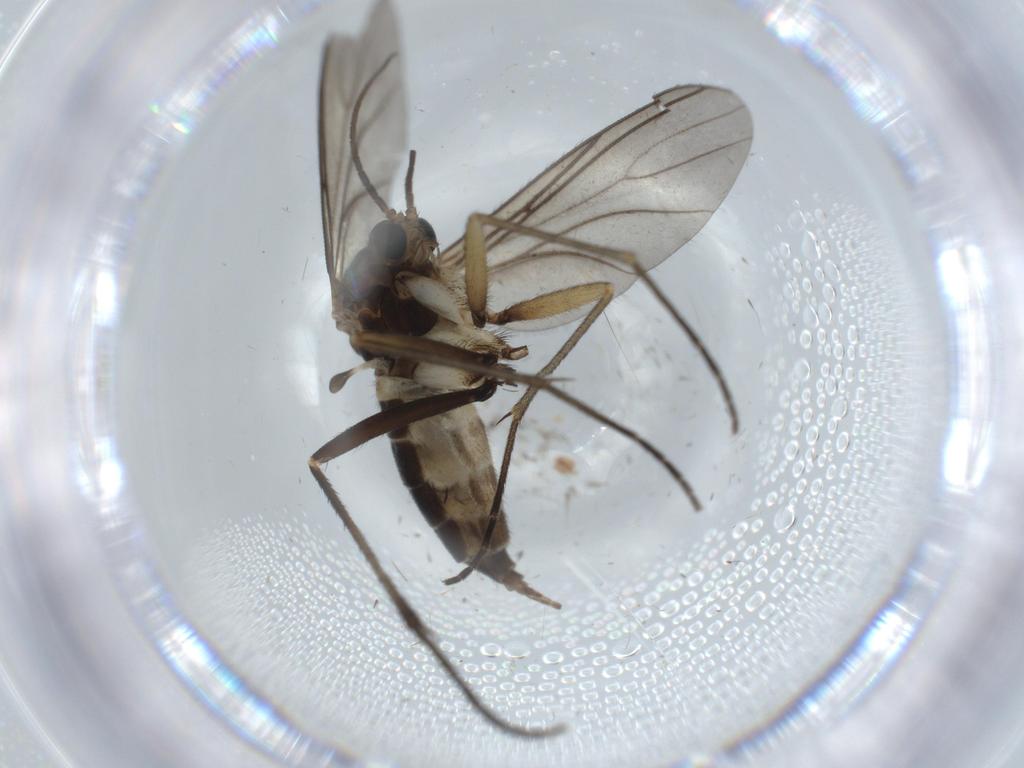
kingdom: Animalia
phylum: Arthropoda
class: Insecta
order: Diptera
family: Sciaridae
